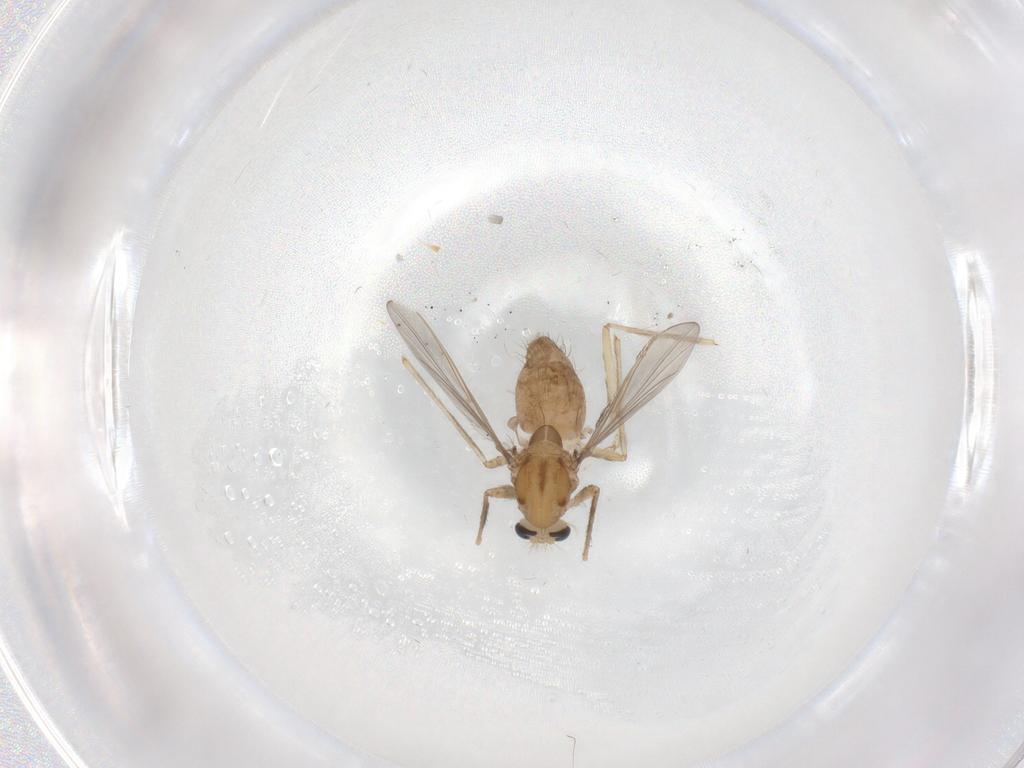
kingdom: Animalia
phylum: Arthropoda
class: Insecta
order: Diptera
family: Chironomidae
